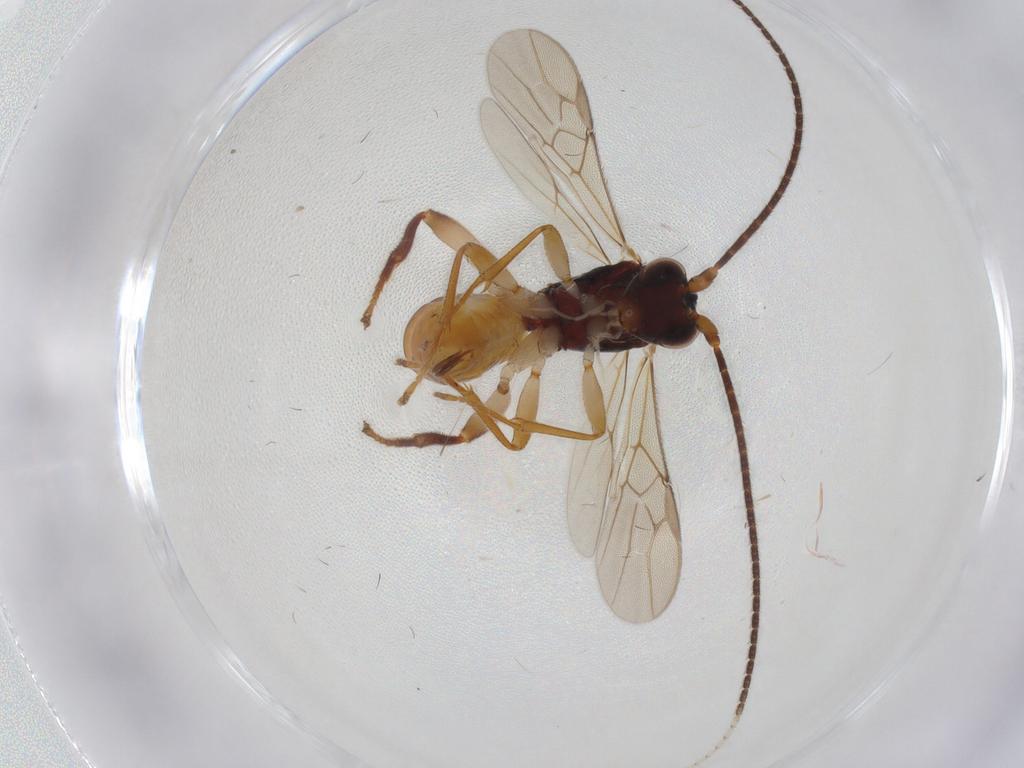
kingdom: Animalia
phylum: Arthropoda
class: Insecta
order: Hymenoptera
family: Braconidae
